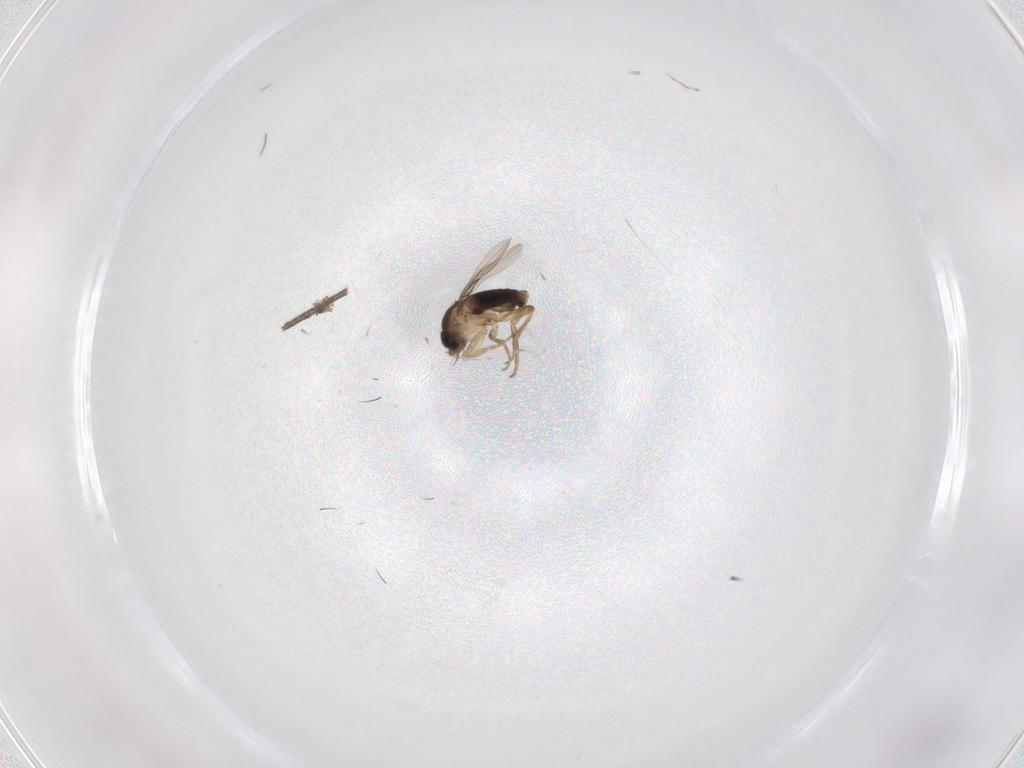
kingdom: Animalia
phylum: Arthropoda
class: Insecta
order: Diptera
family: Phoridae
